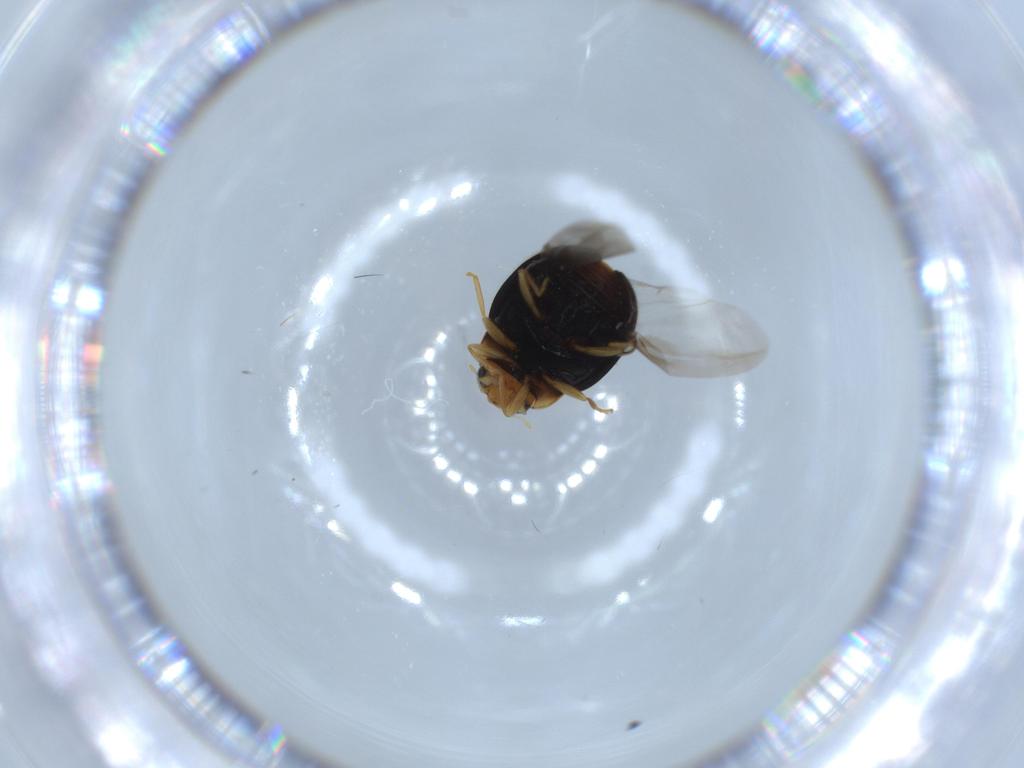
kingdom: Animalia
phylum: Arthropoda
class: Insecta
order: Coleoptera
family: Coccinellidae
